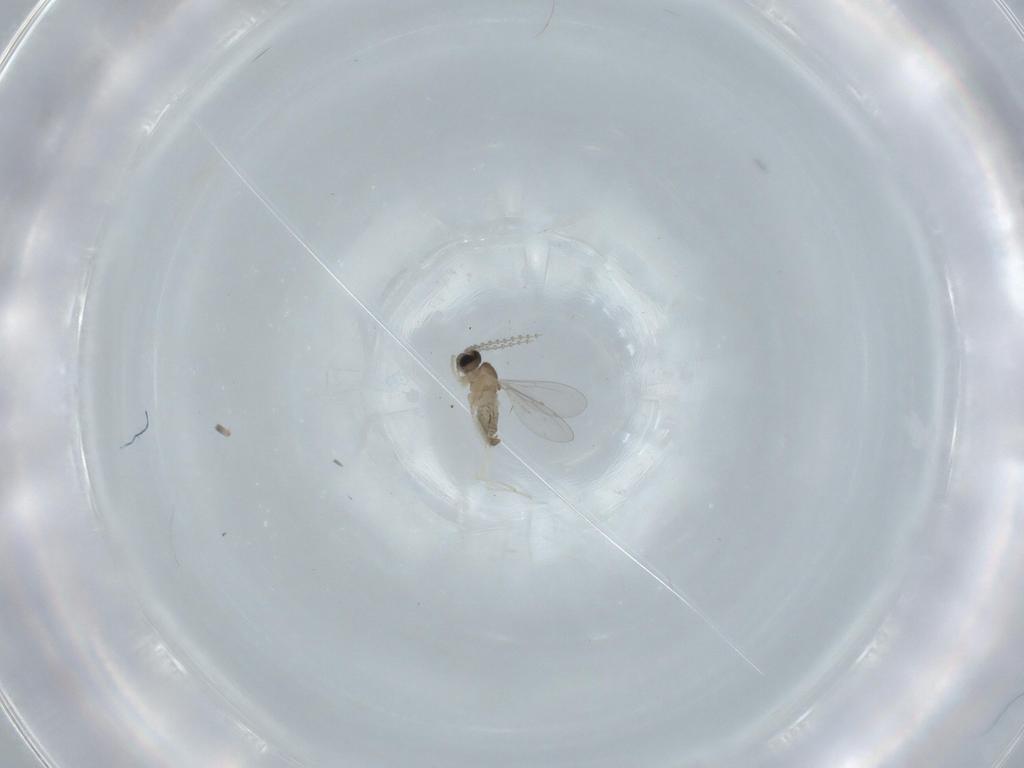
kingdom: Animalia
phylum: Arthropoda
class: Insecta
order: Diptera
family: Cecidomyiidae
